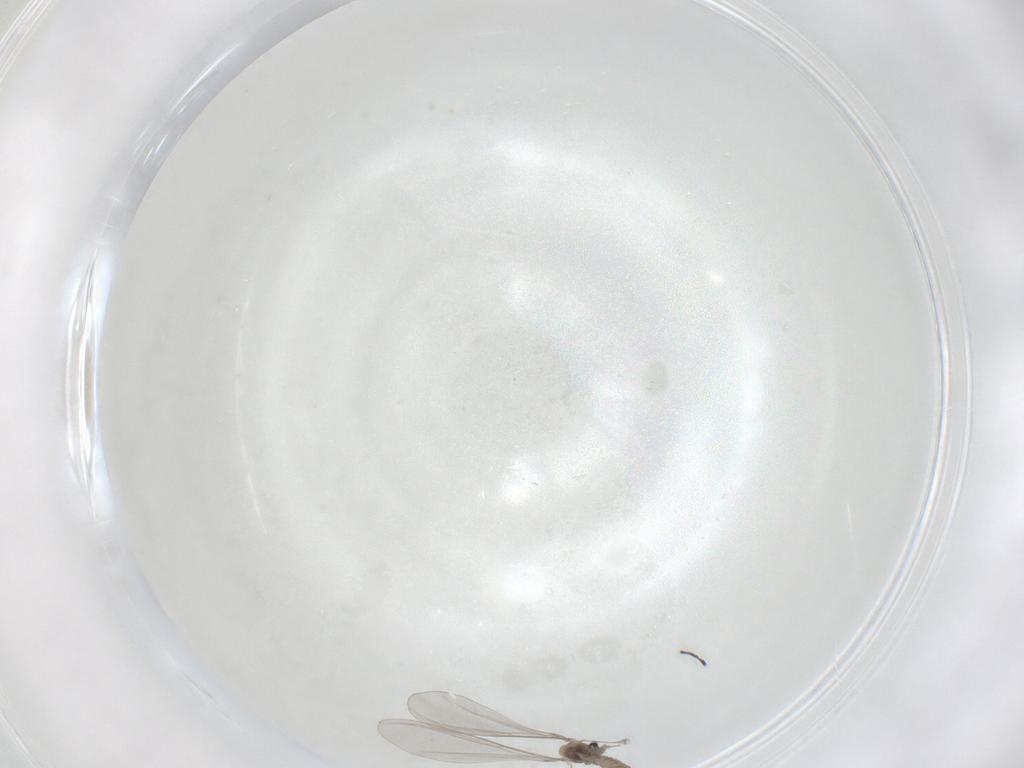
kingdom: Animalia
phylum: Arthropoda
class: Insecta
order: Diptera
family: Cecidomyiidae
